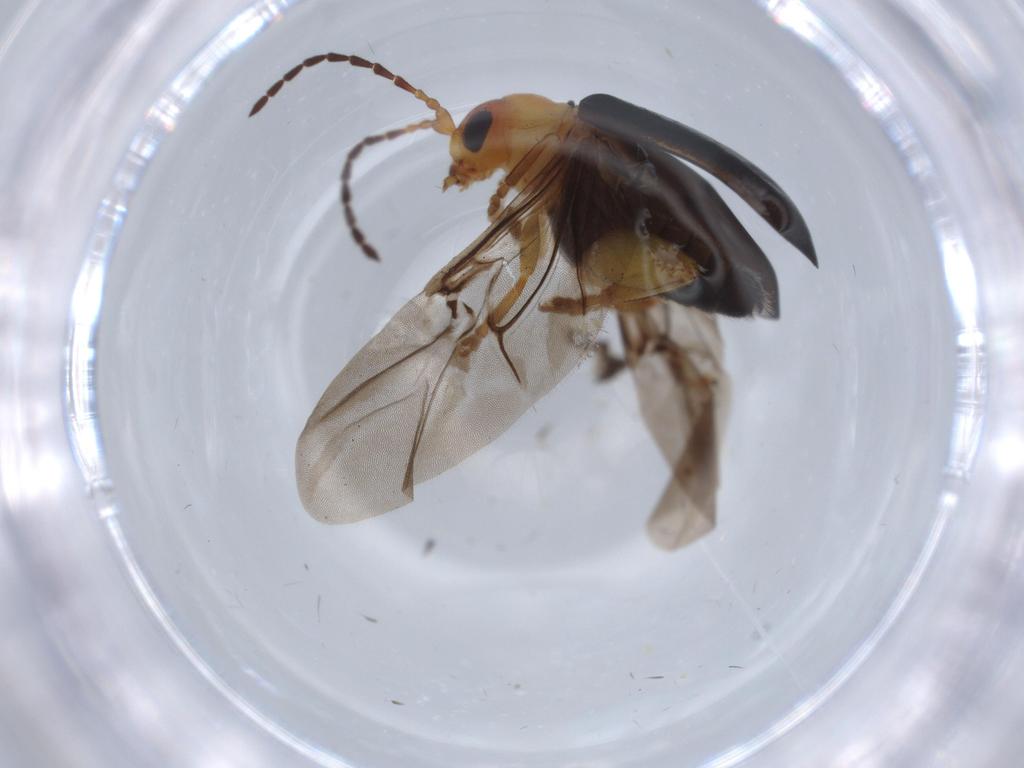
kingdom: Animalia
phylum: Arthropoda
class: Insecta
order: Coleoptera
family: Chrysomelidae
